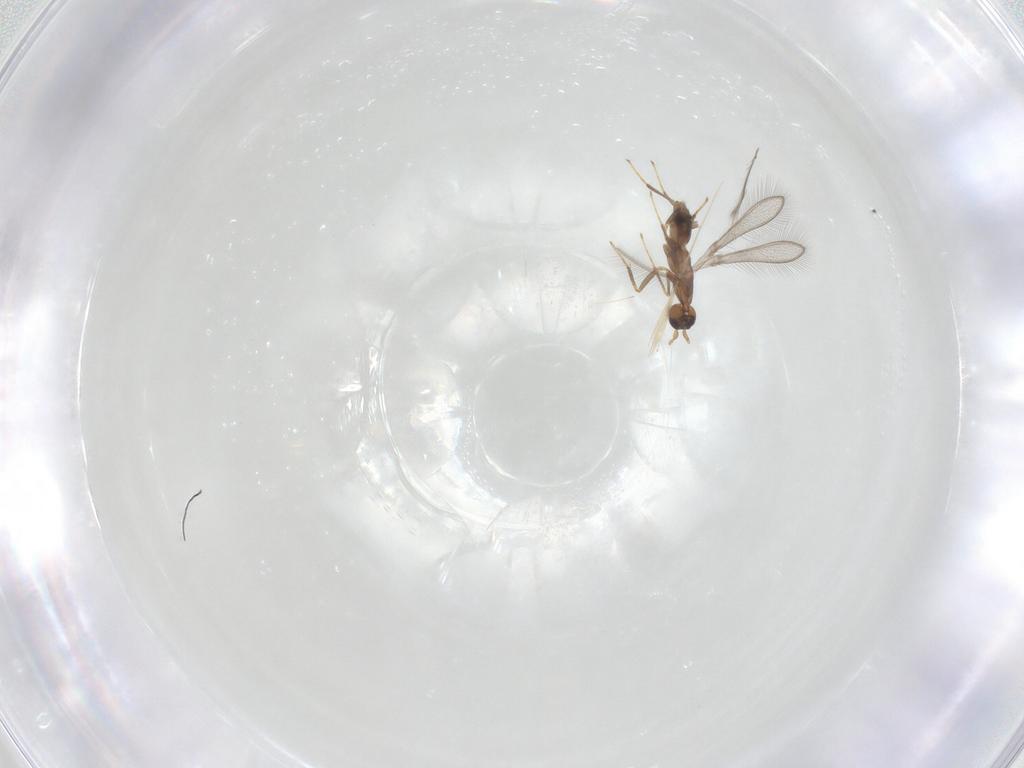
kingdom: Animalia
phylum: Arthropoda
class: Insecta
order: Hymenoptera
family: Mymaridae
